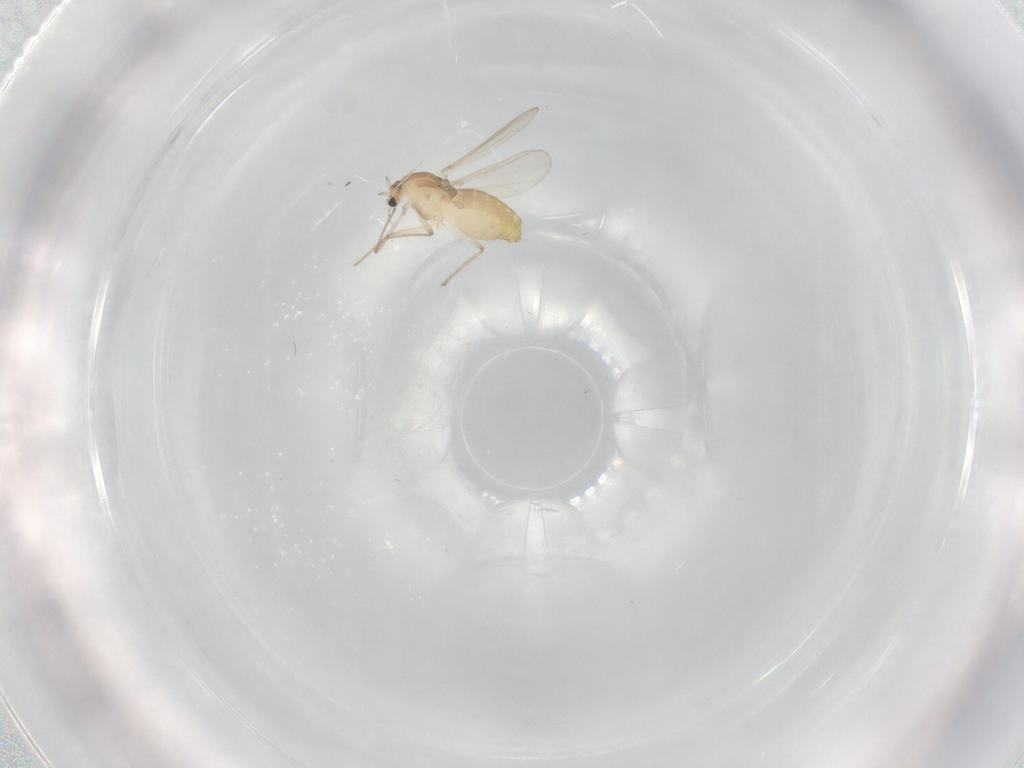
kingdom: Animalia
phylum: Arthropoda
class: Insecta
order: Diptera
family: Chironomidae
